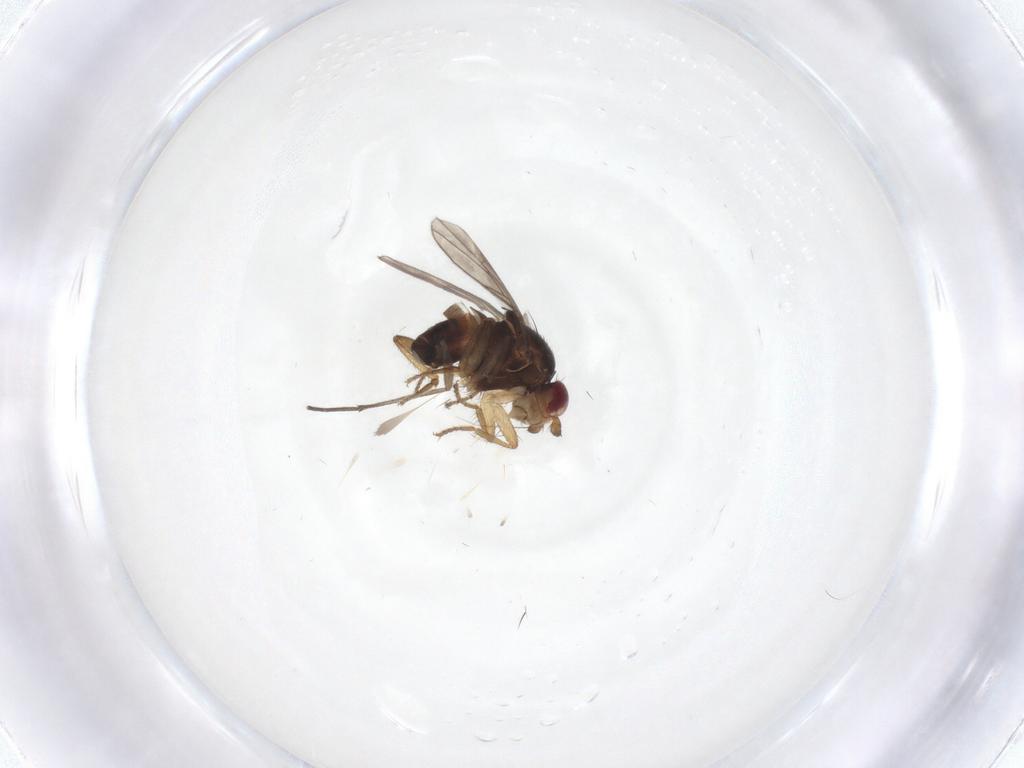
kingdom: Animalia
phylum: Arthropoda
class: Insecta
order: Diptera
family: Sphaeroceridae
